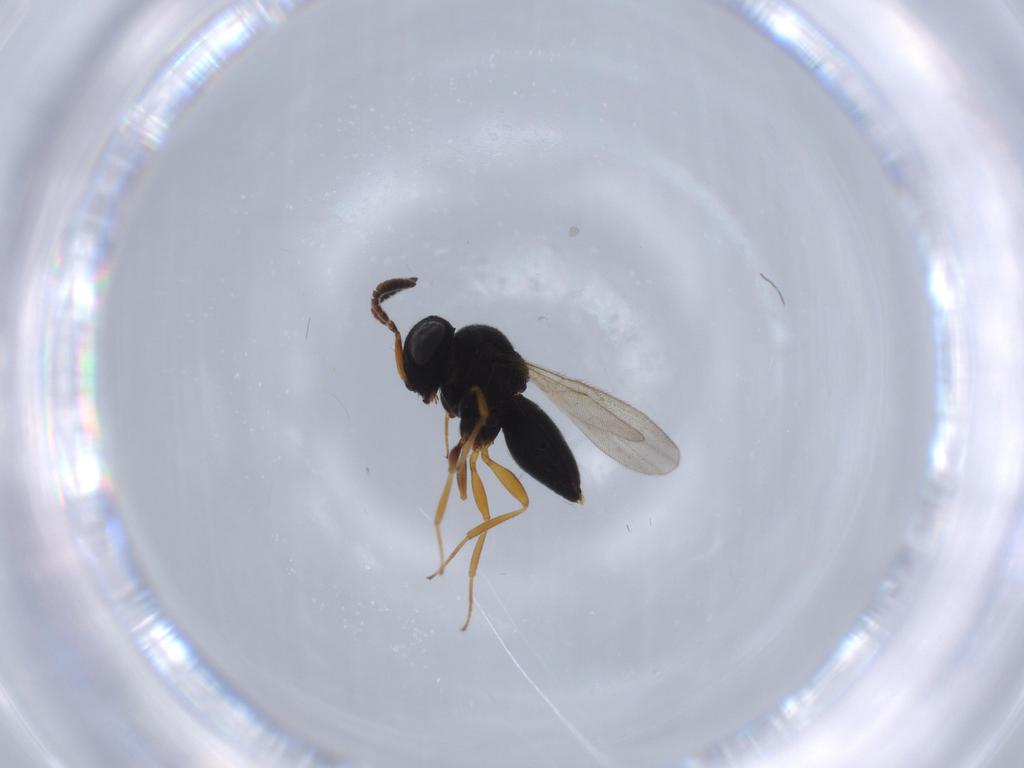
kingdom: Animalia
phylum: Arthropoda
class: Insecta
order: Hymenoptera
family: Scelionidae
